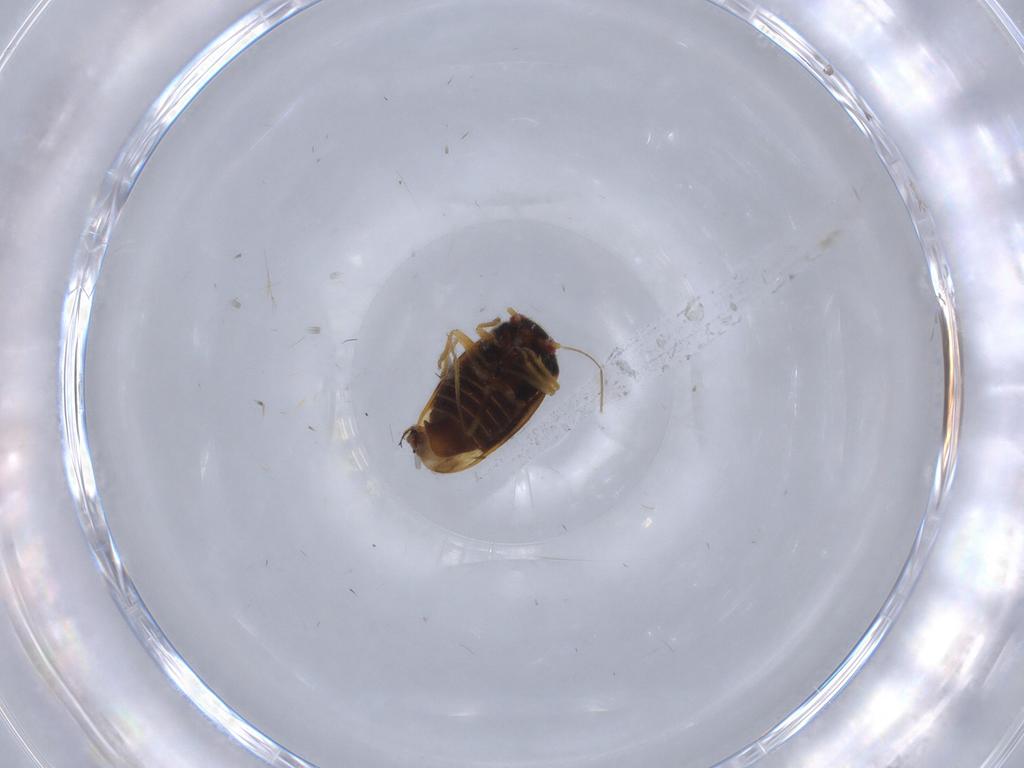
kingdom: Animalia
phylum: Arthropoda
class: Insecta
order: Hemiptera
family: Schizopteridae
